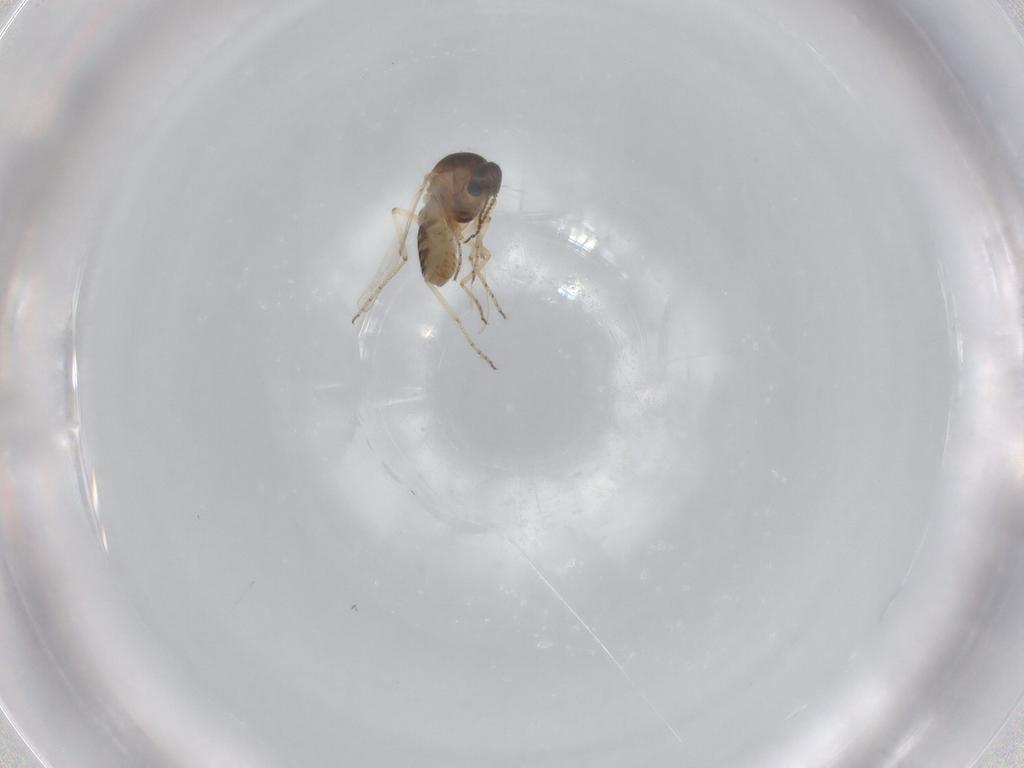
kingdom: Animalia
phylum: Arthropoda
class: Insecta
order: Diptera
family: Ceratopogonidae
